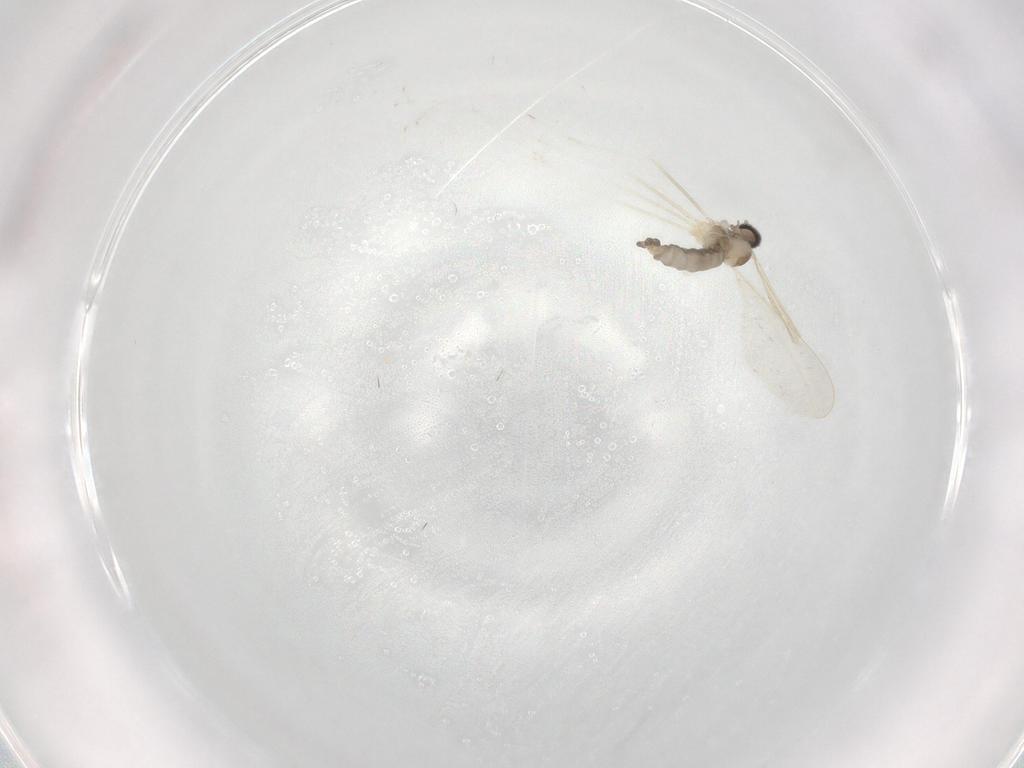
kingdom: Animalia
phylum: Arthropoda
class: Insecta
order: Diptera
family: Cecidomyiidae
